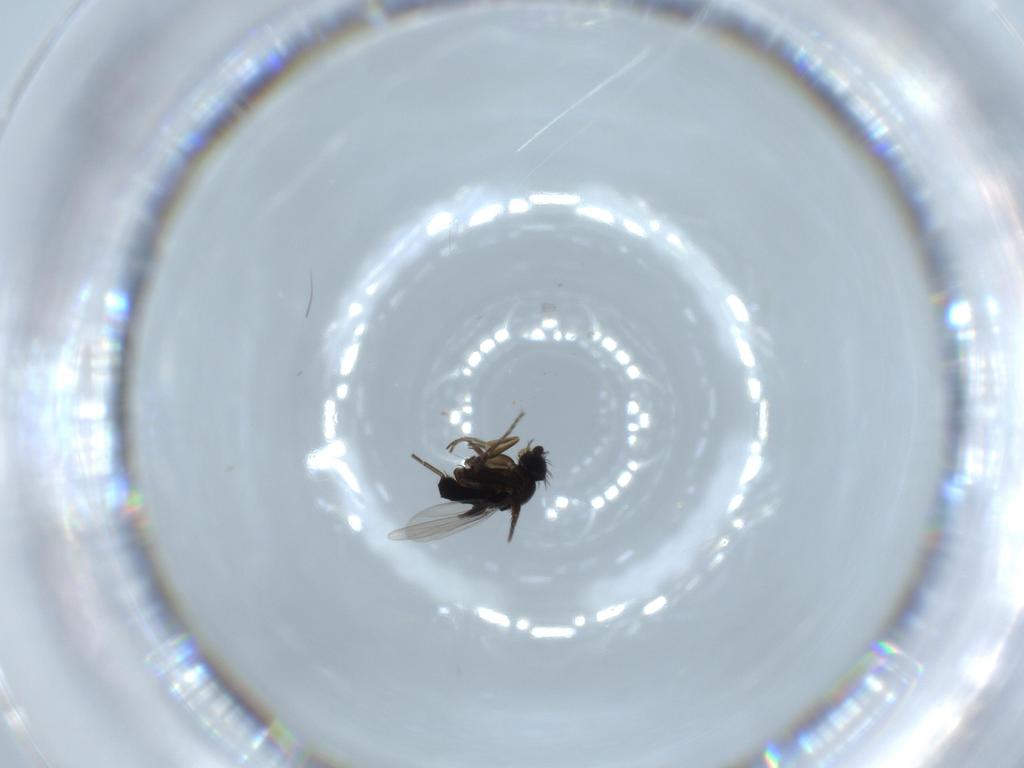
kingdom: Animalia
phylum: Arthropoda
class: Insecta
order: Diptera
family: Phoridae
